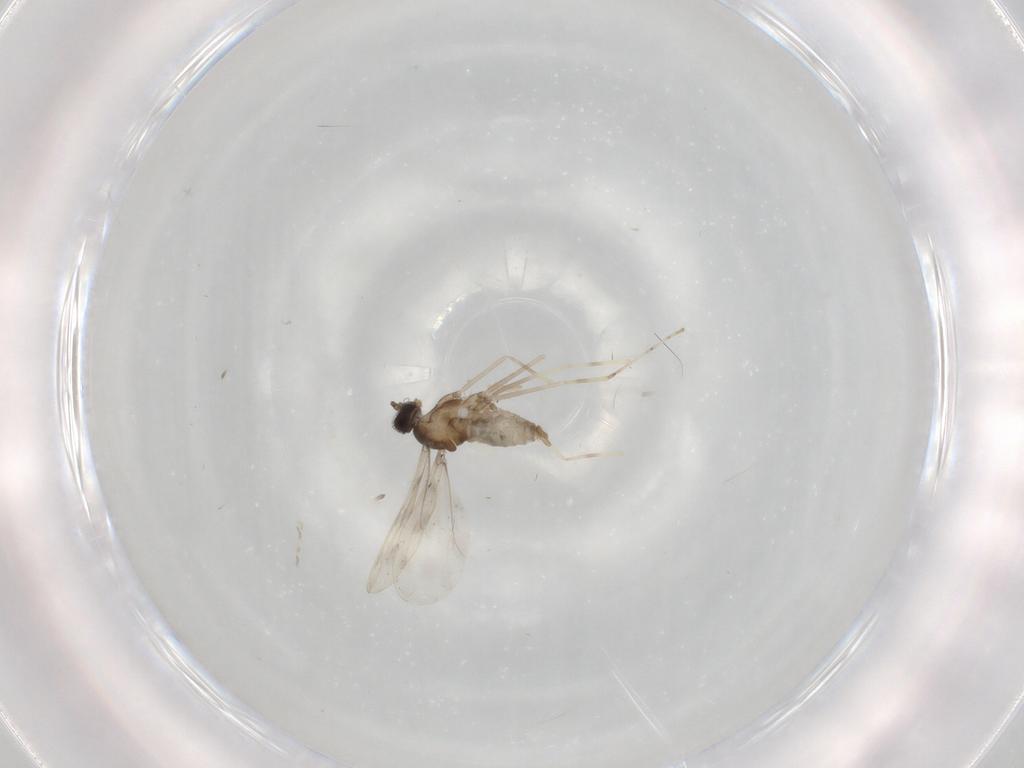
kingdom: Animalia
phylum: Arthropoda
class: Insecta
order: Diptera
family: Cecidomyiidae
